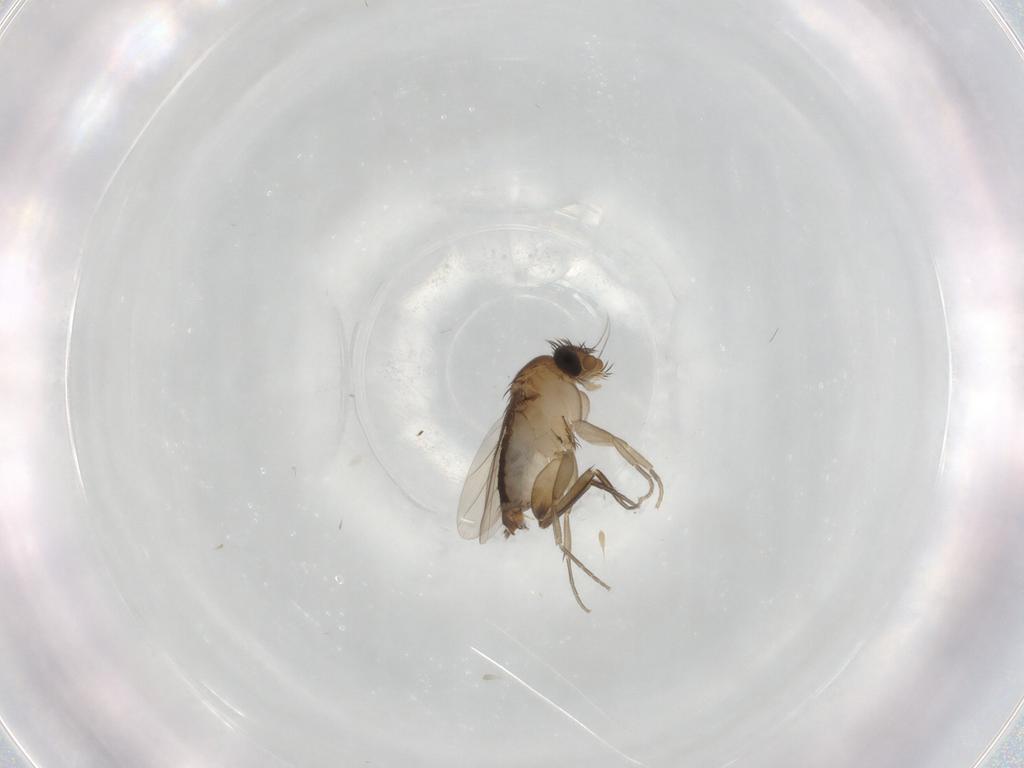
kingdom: Animalia
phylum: Arthropoda
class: Insecta
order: Diptera
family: Phoridae
